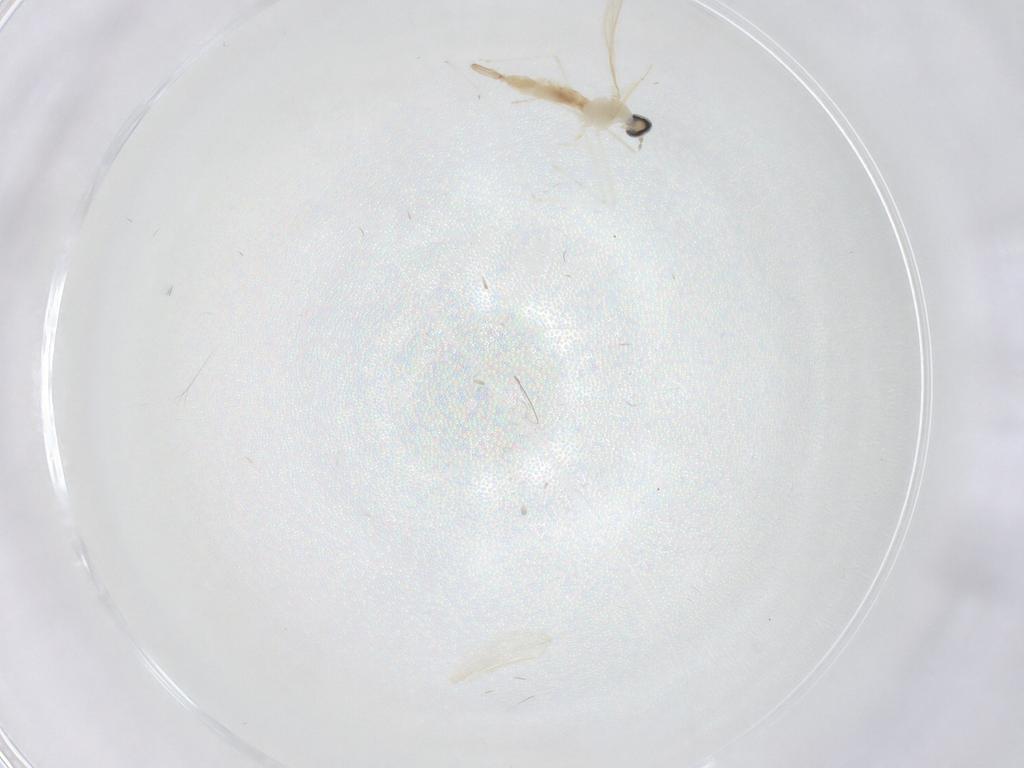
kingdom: Animalia
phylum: Arthropoda
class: Insecta
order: Diptera
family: Cecidomyiidae
